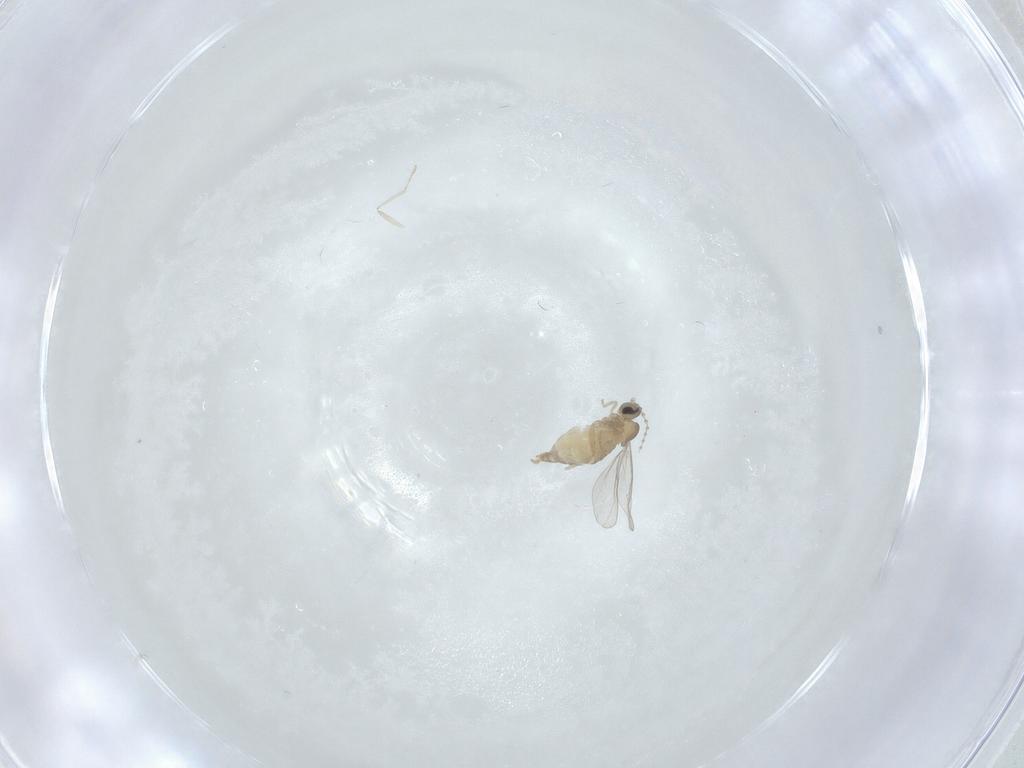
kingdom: Animalia
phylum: Arthropoda
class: Insecta
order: Diptera
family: Cecidomyiidae
